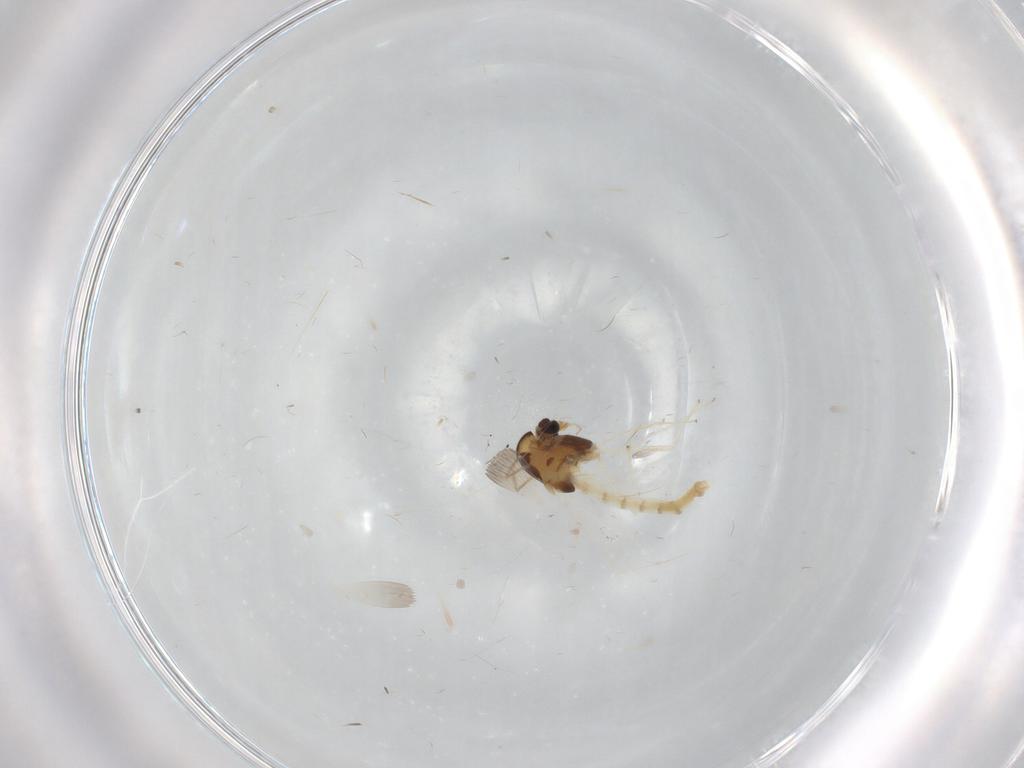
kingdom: Animalia
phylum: Arthropoda
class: Insecta
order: Diptera
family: Chironomidae
